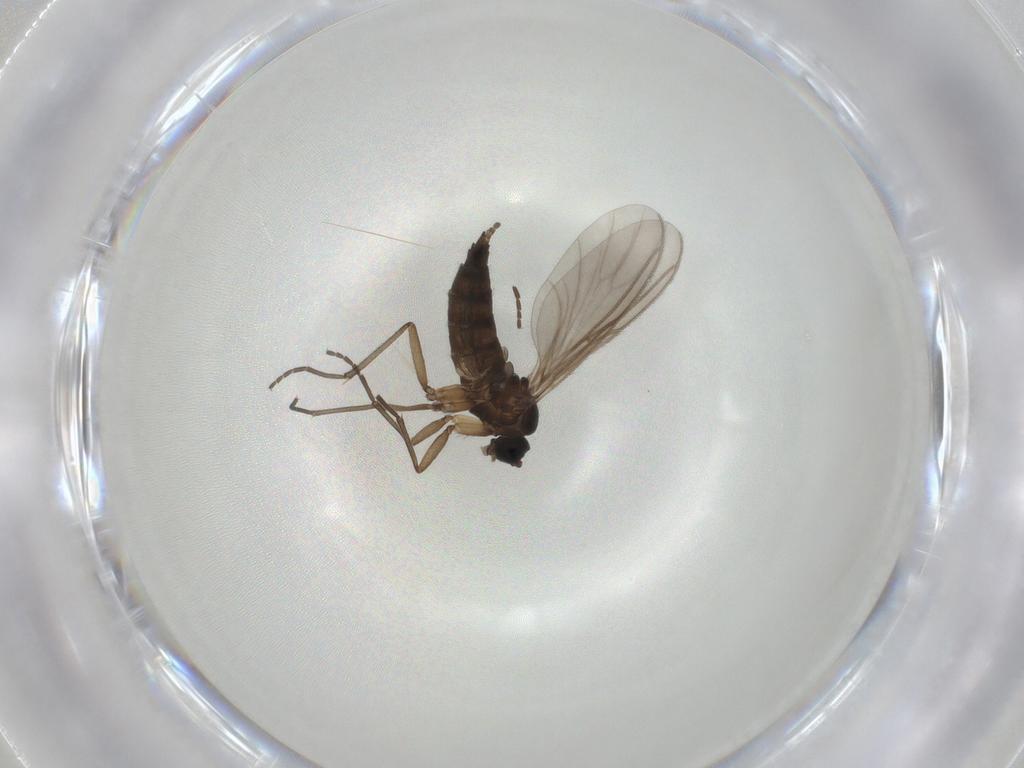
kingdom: Animalia
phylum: Arthropoda
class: Insecta
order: Diptera
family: Sciaridae
